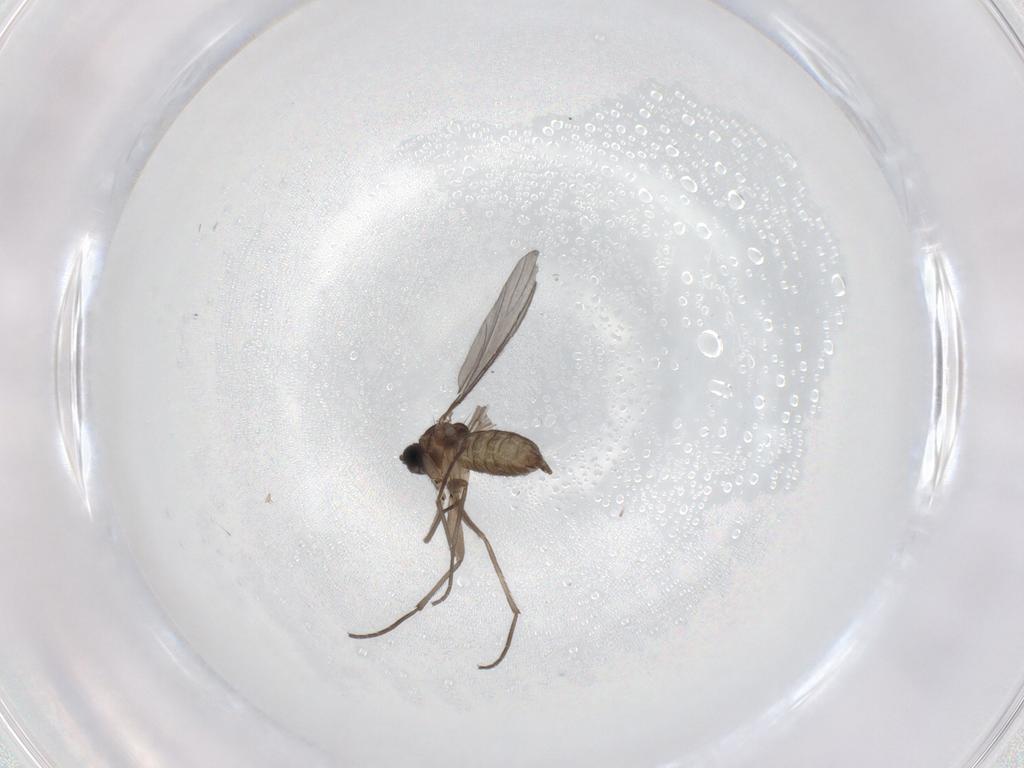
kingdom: Animalia
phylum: Arthropoda
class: Insecta
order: Diptera
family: Sciaridae
